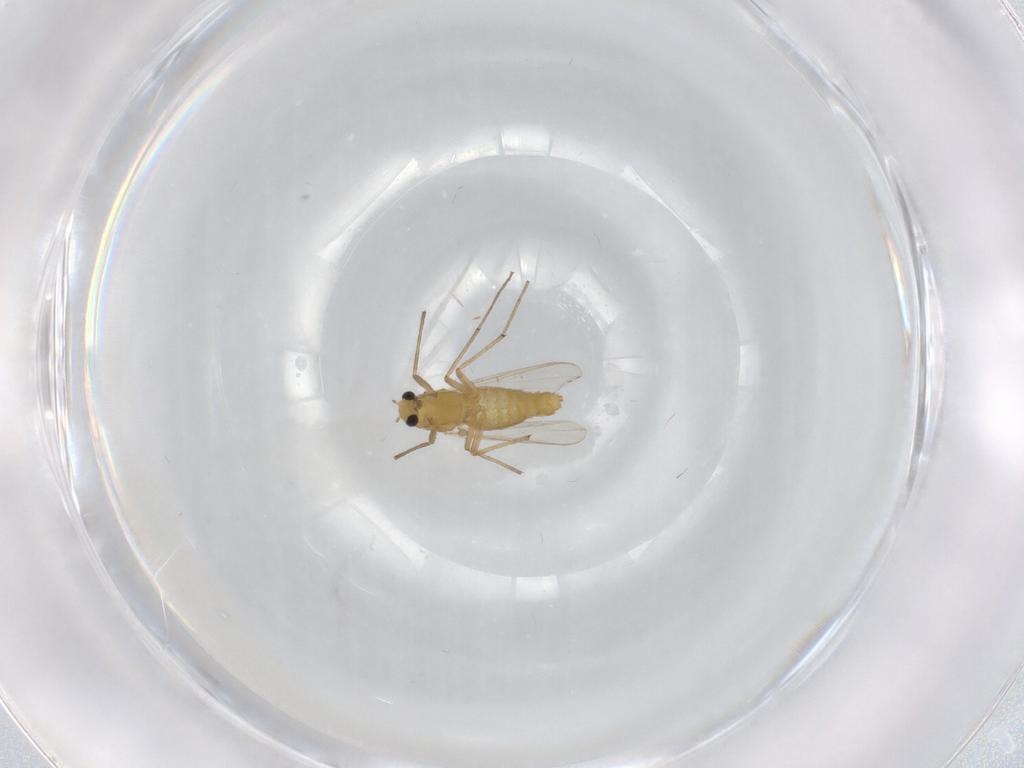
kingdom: Animalia
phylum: Arthropoda
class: Insecta
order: Diptera
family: Chironomidae
